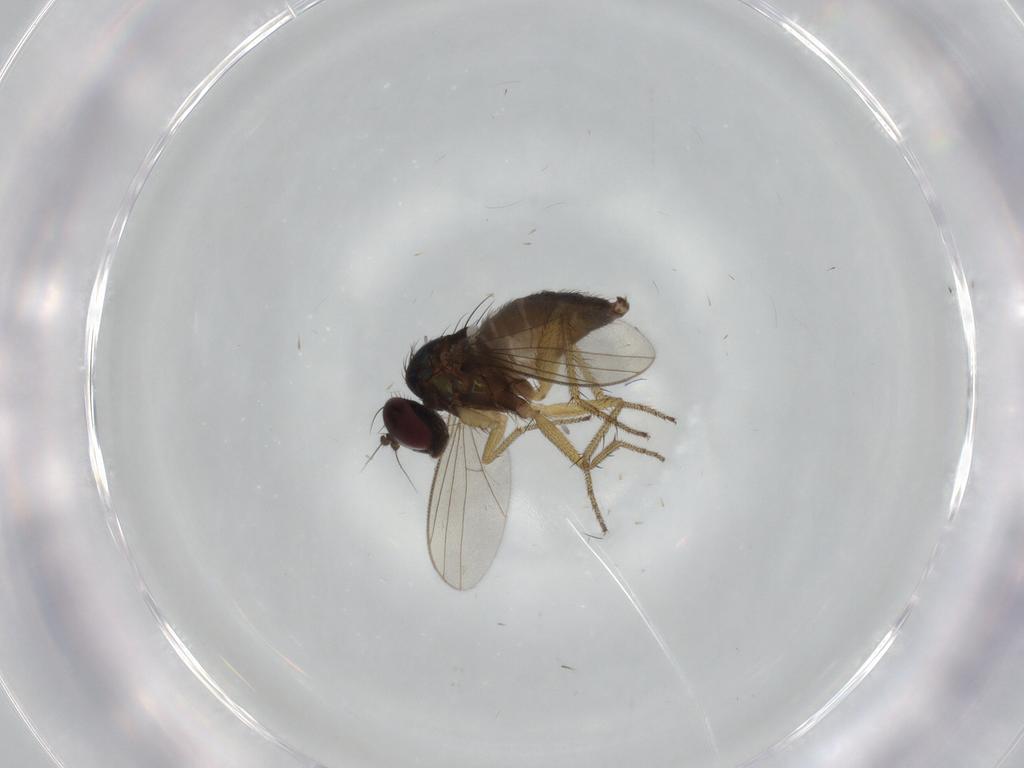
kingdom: Animalia
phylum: Arthropoda
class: Insecta
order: Diptera
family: Dolichopodidae
